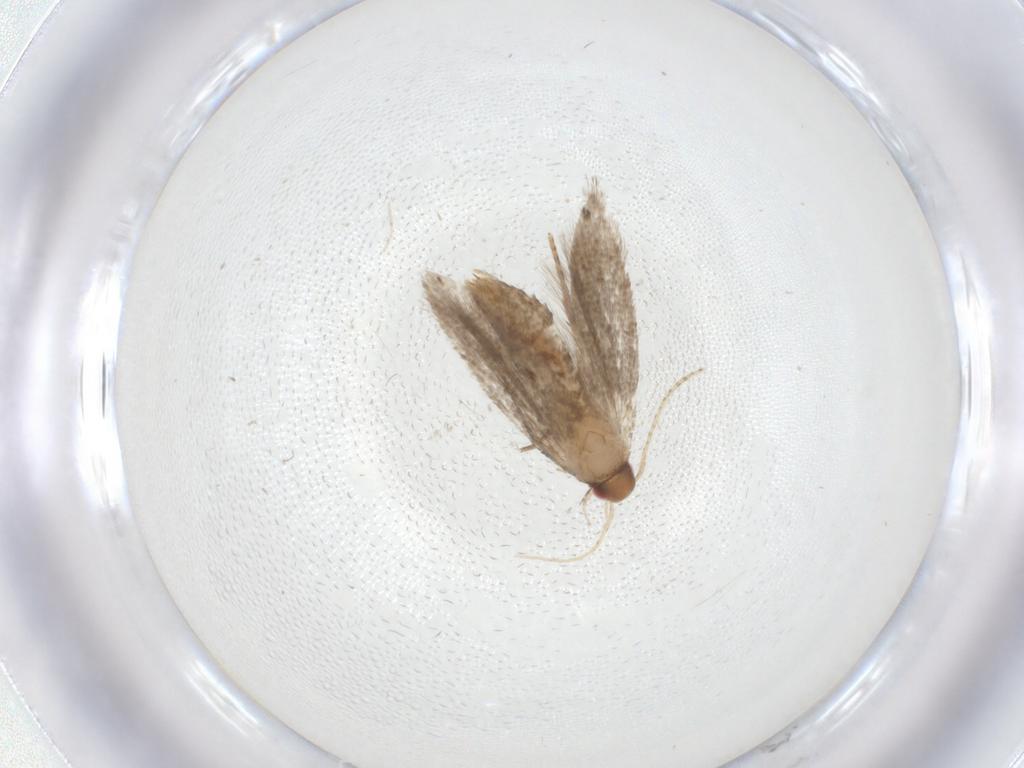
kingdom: Animalia
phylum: Arthropoda
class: Insecta
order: Lepidoptera
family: Gelechiidae
